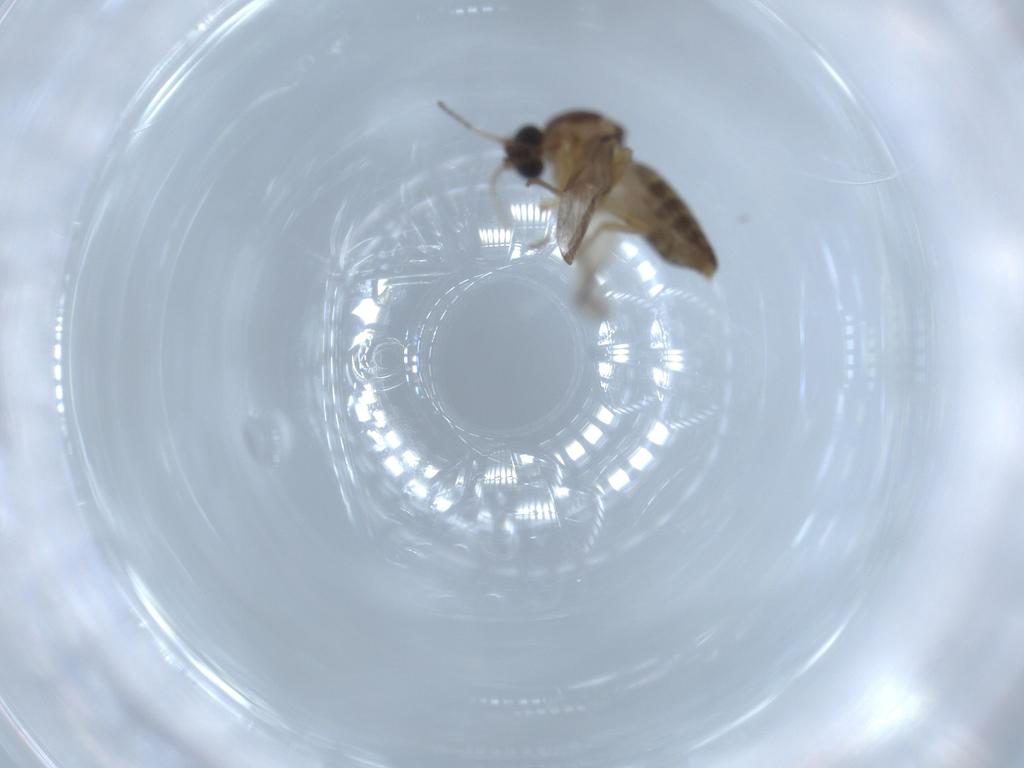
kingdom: Animalia
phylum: Arthropoda
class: Insecta
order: Diptera
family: Ceratopogonidae
